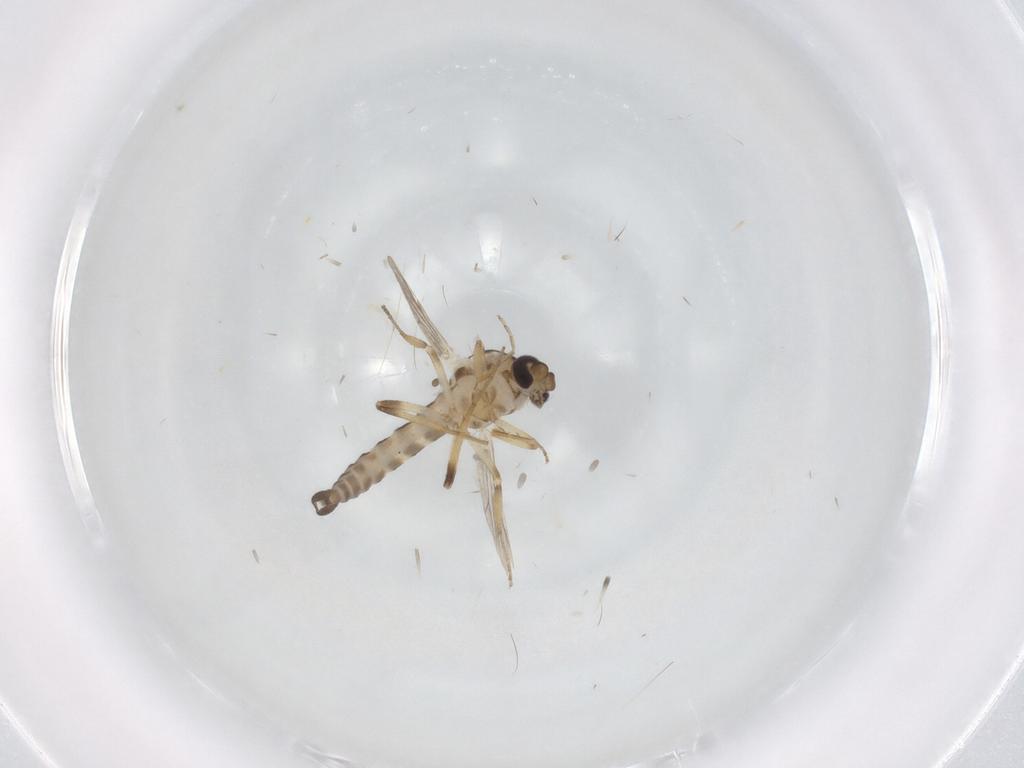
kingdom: Animalia
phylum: Arthropoda
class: Insecta
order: Diptera
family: Ceratopogonidae
